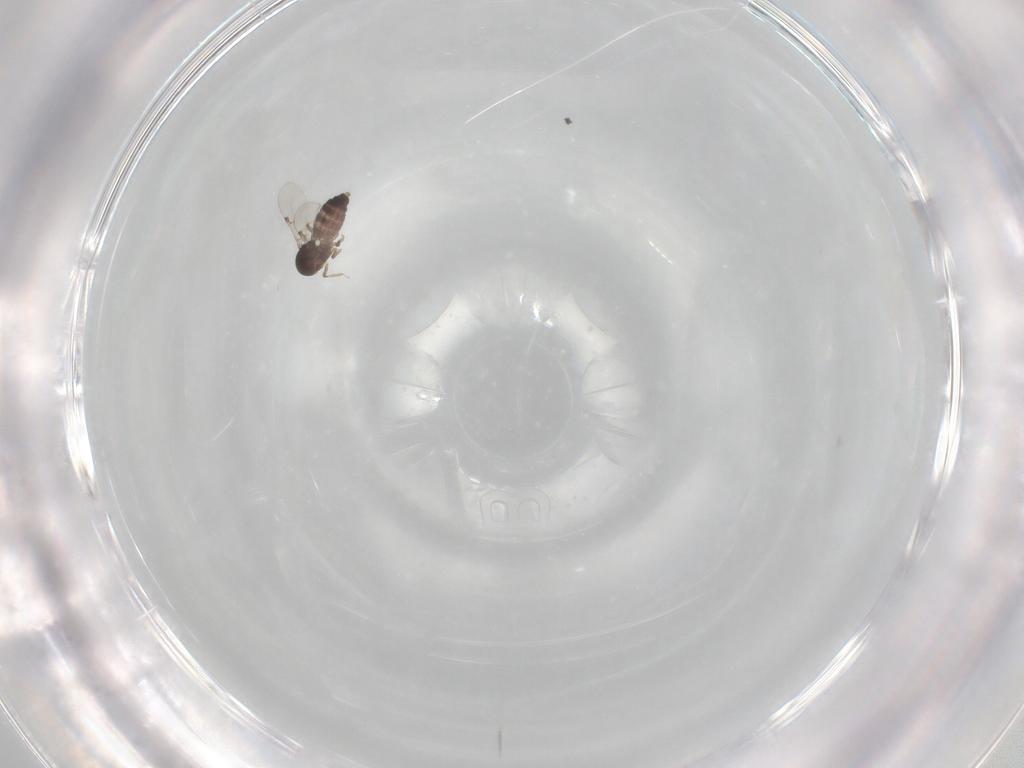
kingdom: Animalia
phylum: Arthropoda
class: Insecta
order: Diptera
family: Ceratopogonidae
